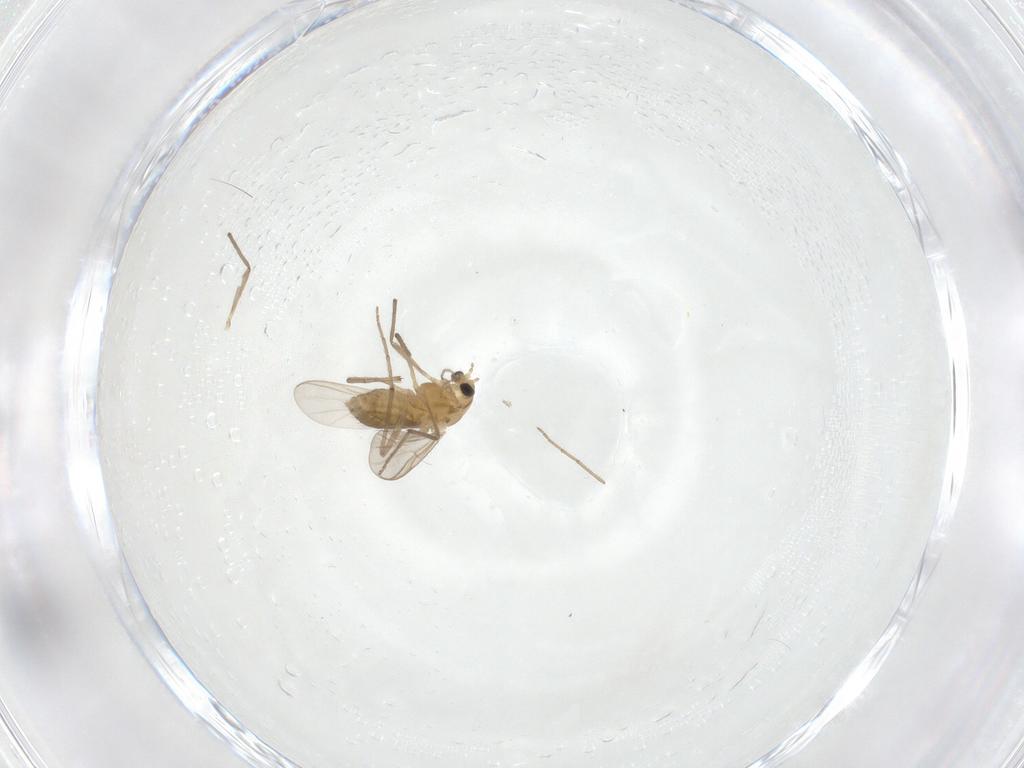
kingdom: Animalia
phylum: Arthropoda
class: Insecta
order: Diptera
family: Chironomidae
